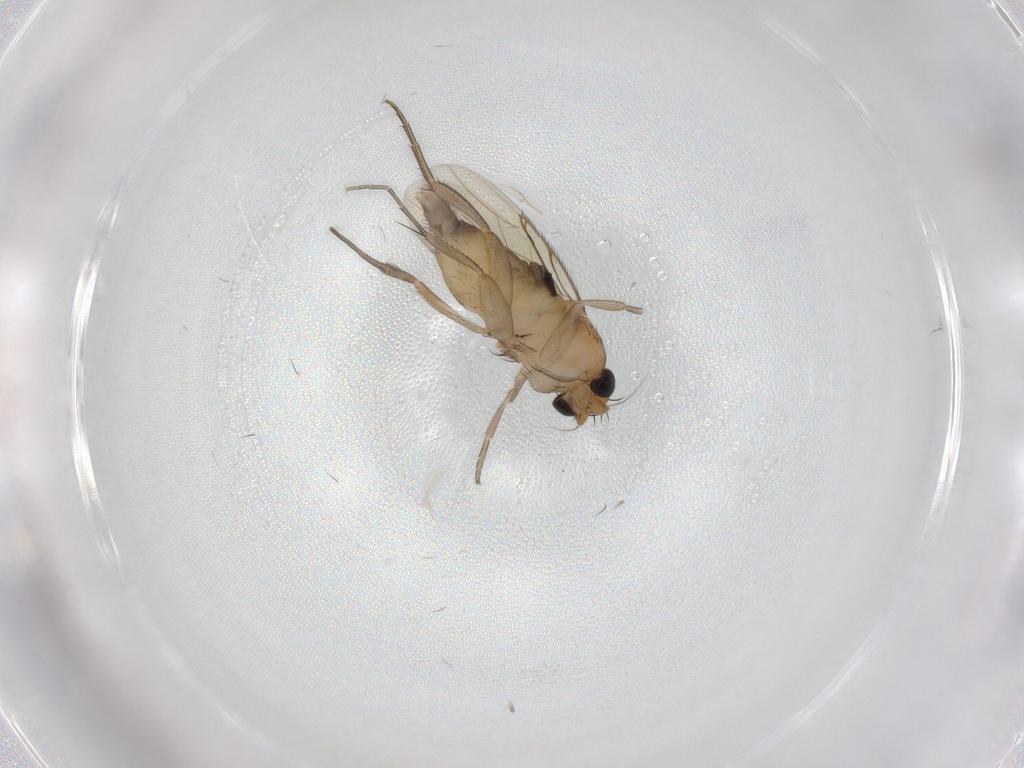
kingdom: Animalia
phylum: Arthropoda
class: Insecta
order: Diptera
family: Phoridae
